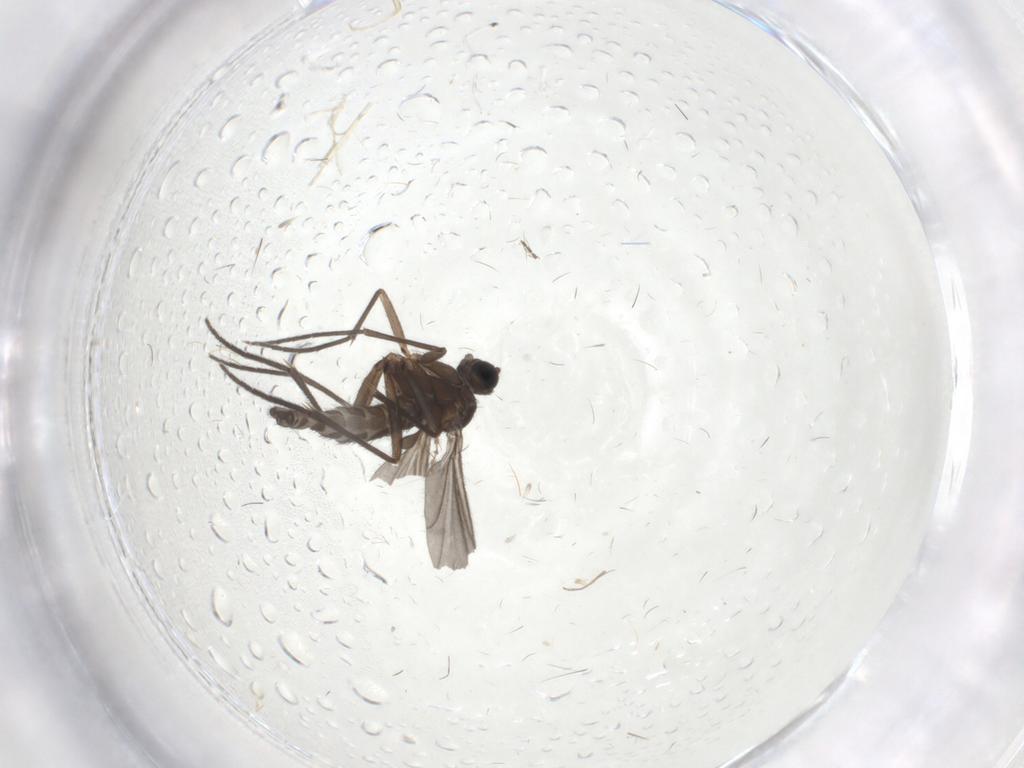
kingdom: Animalia
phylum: Arthropoda
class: Insecta
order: Diptera
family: Sciaridae
